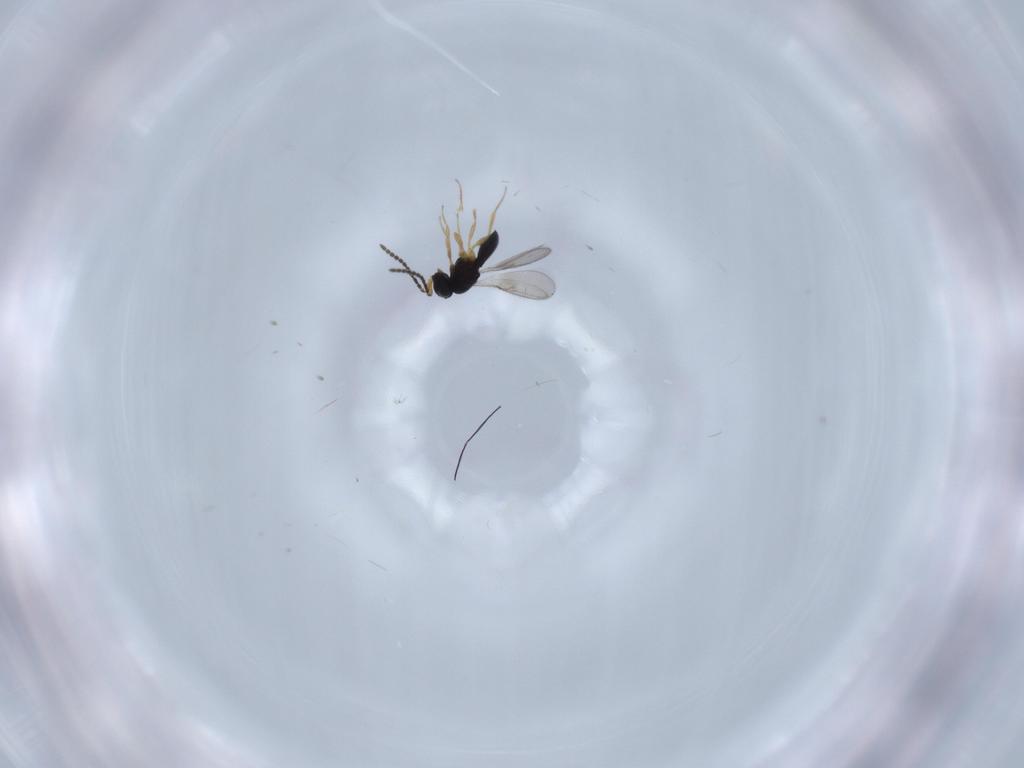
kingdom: Animalia
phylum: Arthropoda
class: Insecta
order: Hymenoptera
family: Scelionidae
